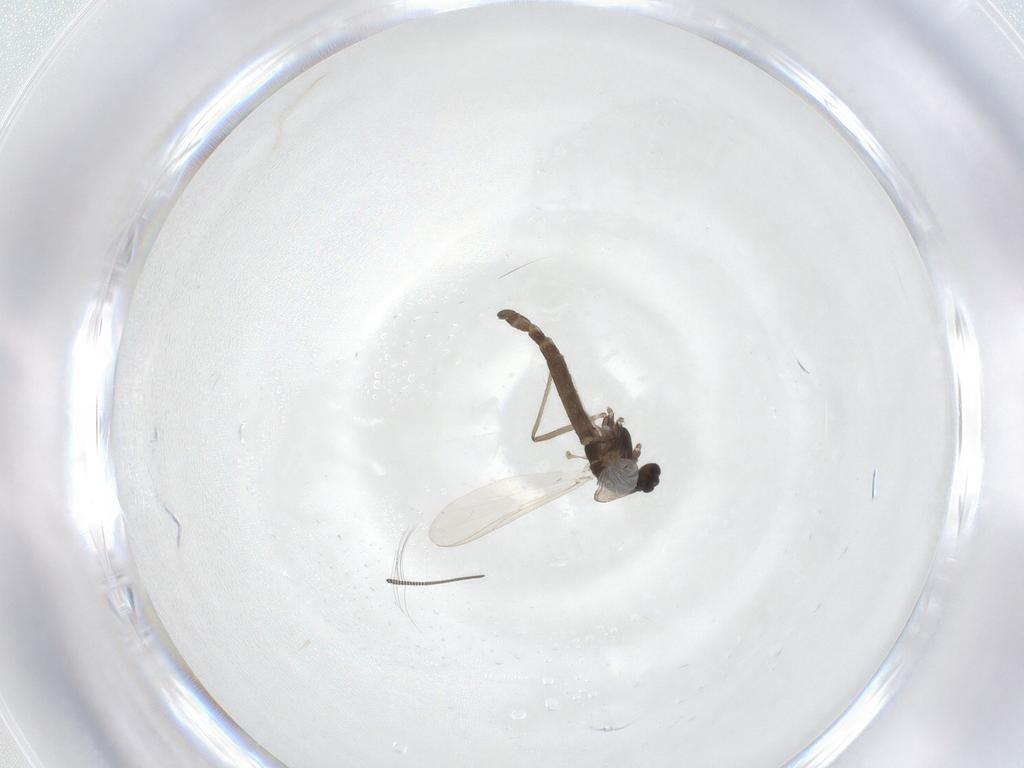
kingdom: Animalia
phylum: Arthropoda
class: Insecta
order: Diptera
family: Chironomidae
